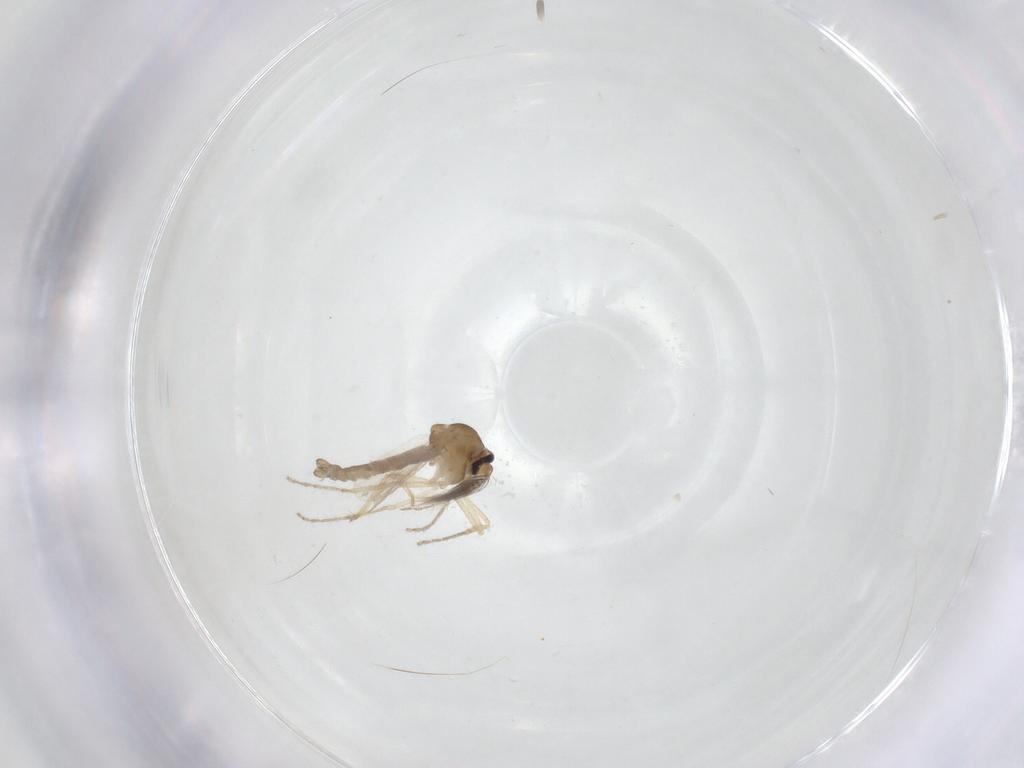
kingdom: Animalia
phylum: Arthropoda
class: Insecta
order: Diptera
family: Ceratopogonidae
